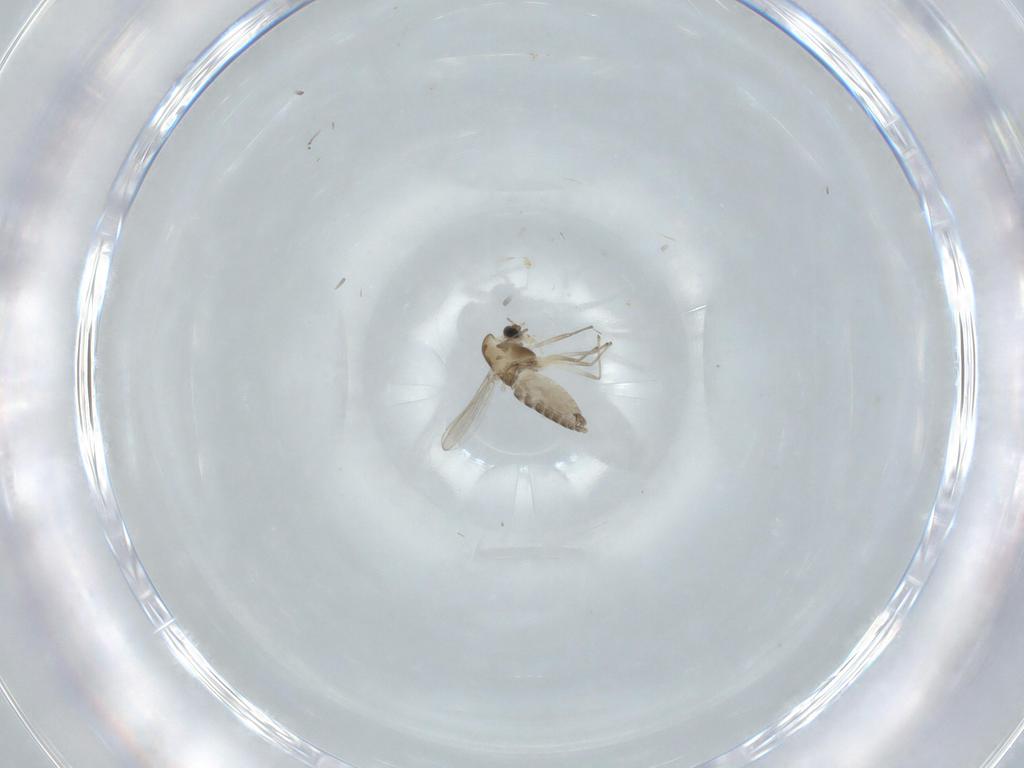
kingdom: Animalia
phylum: Arthropoda
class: Insecta
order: Diptera
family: Chironomidae
